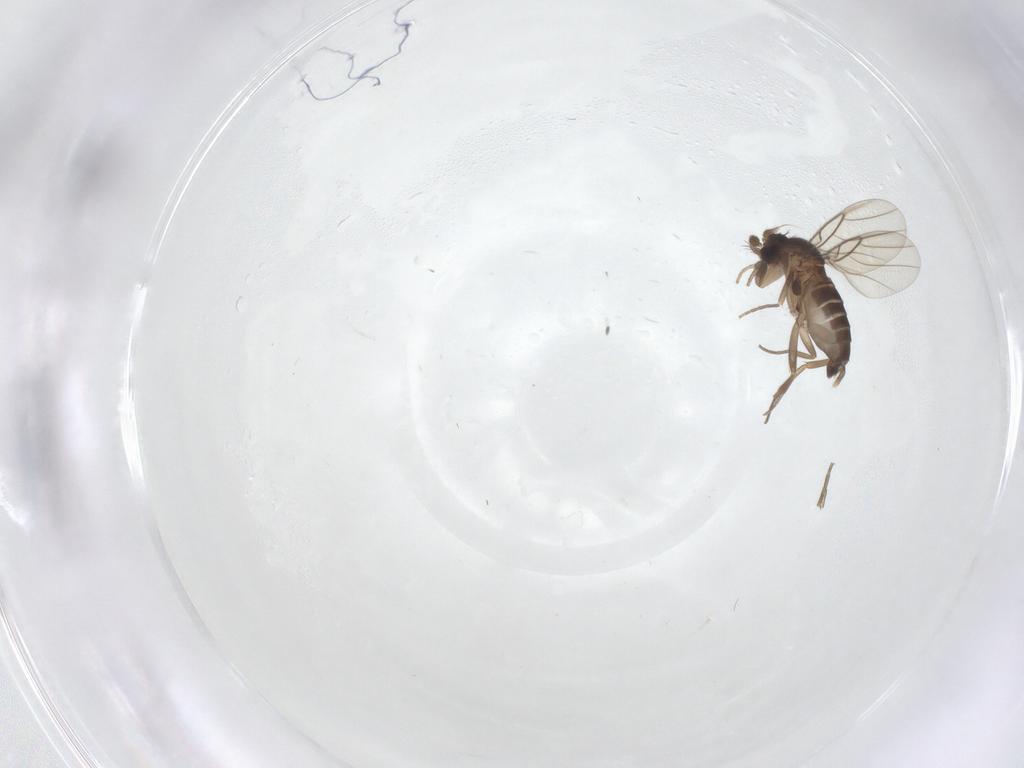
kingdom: Animalia
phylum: Arthropoda
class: Insecta
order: Diptera
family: Phoridae
